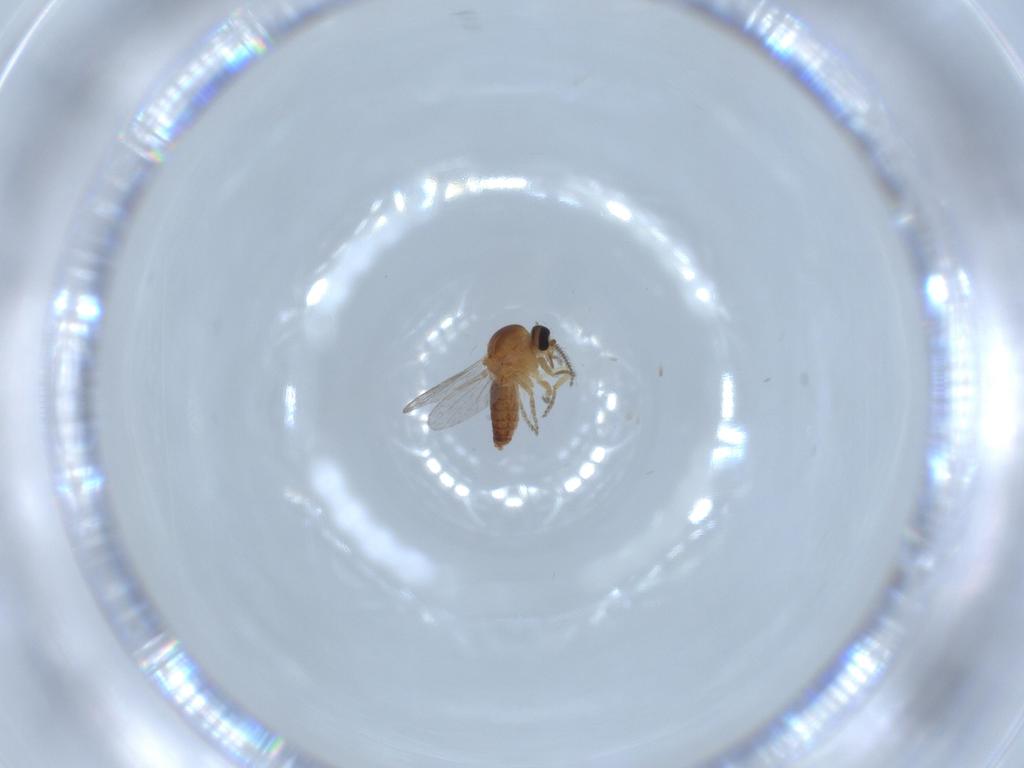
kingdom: Animalia
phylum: Arthropoda
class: Insecta
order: Diptera
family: Ceratopogonidae
